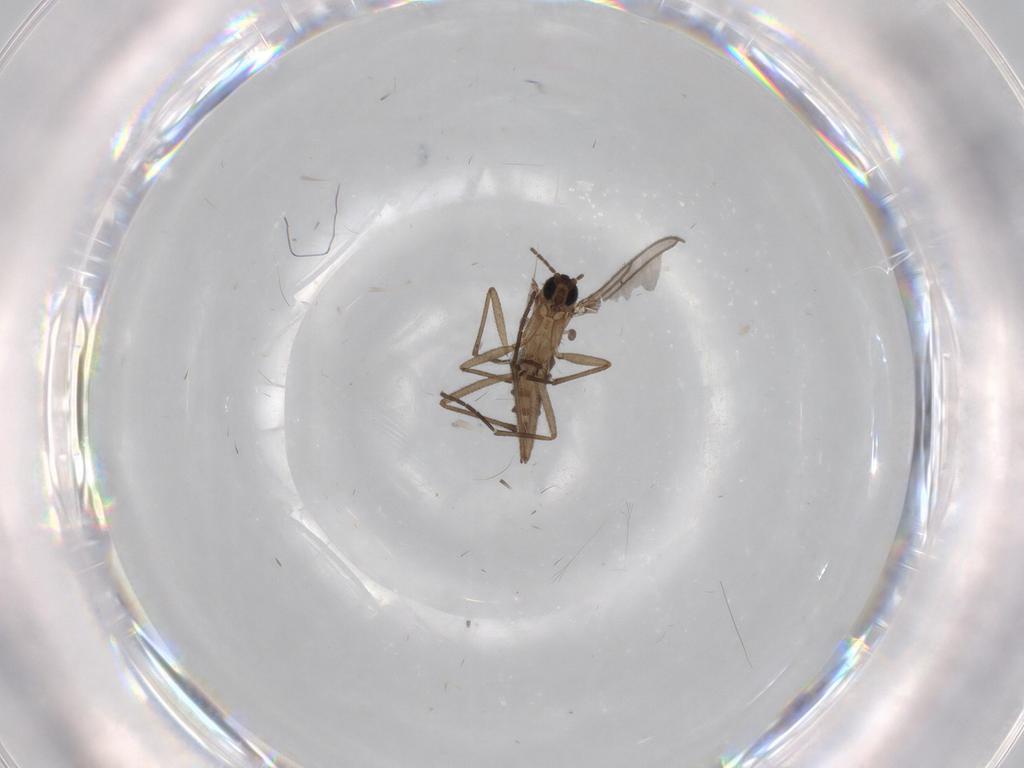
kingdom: Animalia
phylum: Arthropoda
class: Insecta
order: Diptera
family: Sciaridae
